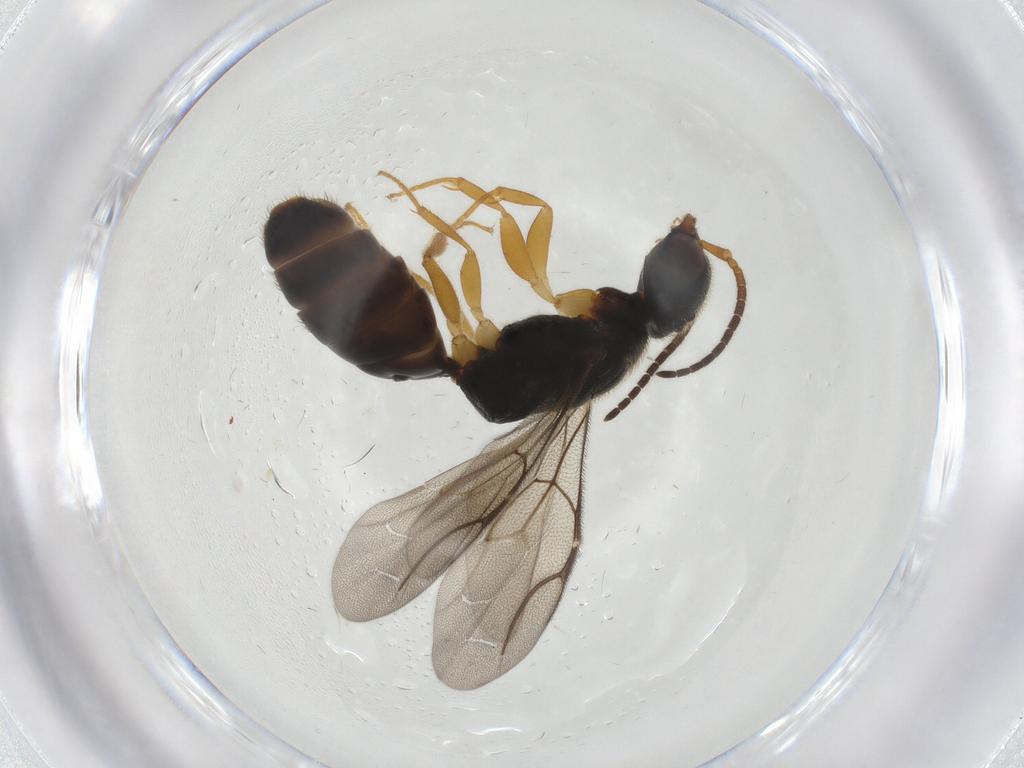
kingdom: Animalia
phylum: Arthropoda
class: Insecta
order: Hymenoptera
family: Bethylidae
